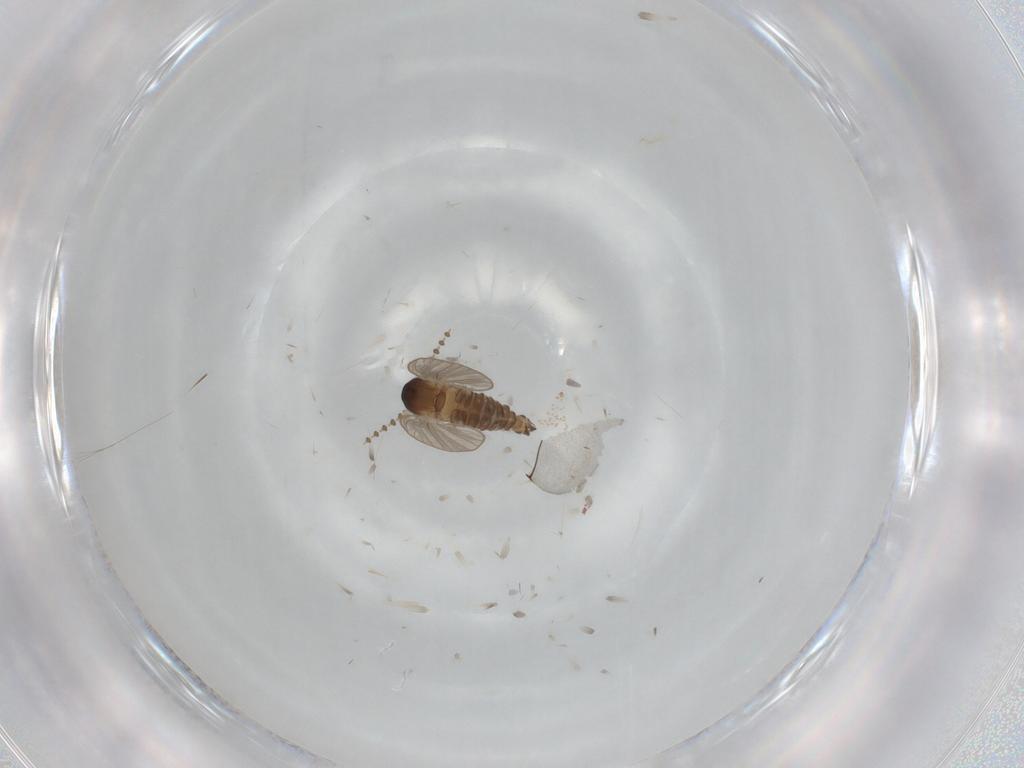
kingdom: Animalia
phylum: Arthropoda
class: Insecta
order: Diptera
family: Psychodidae
